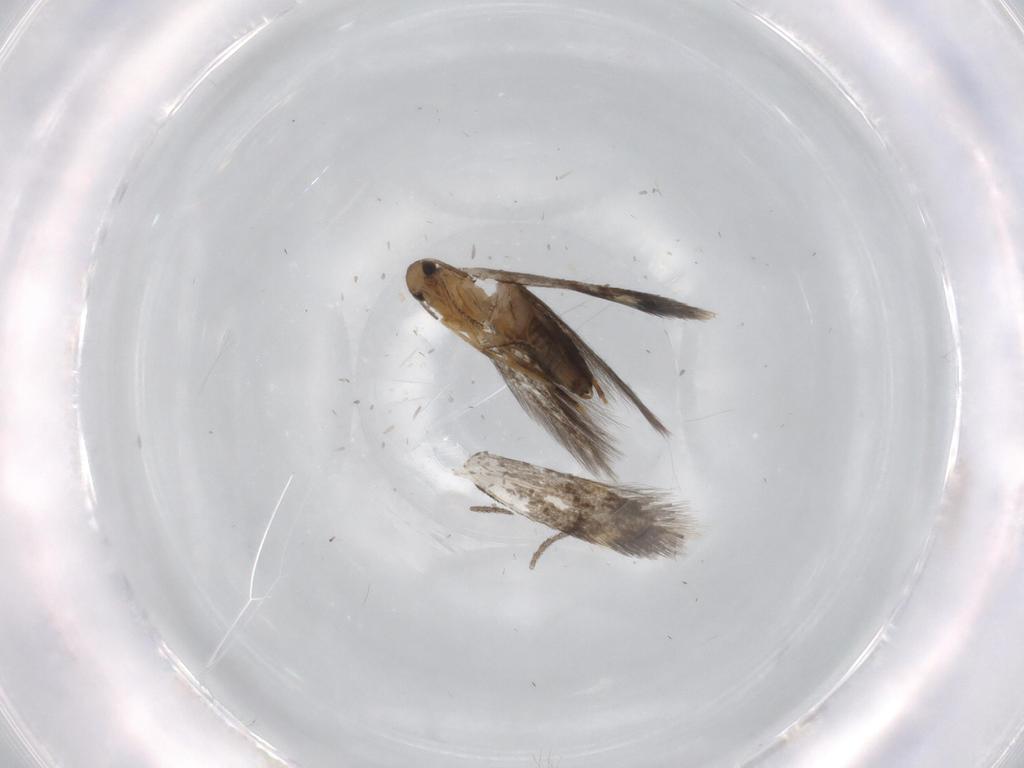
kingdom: Animalia
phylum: Arthropoda
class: Insecta
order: Lepidoptera
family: Heliozelidae
